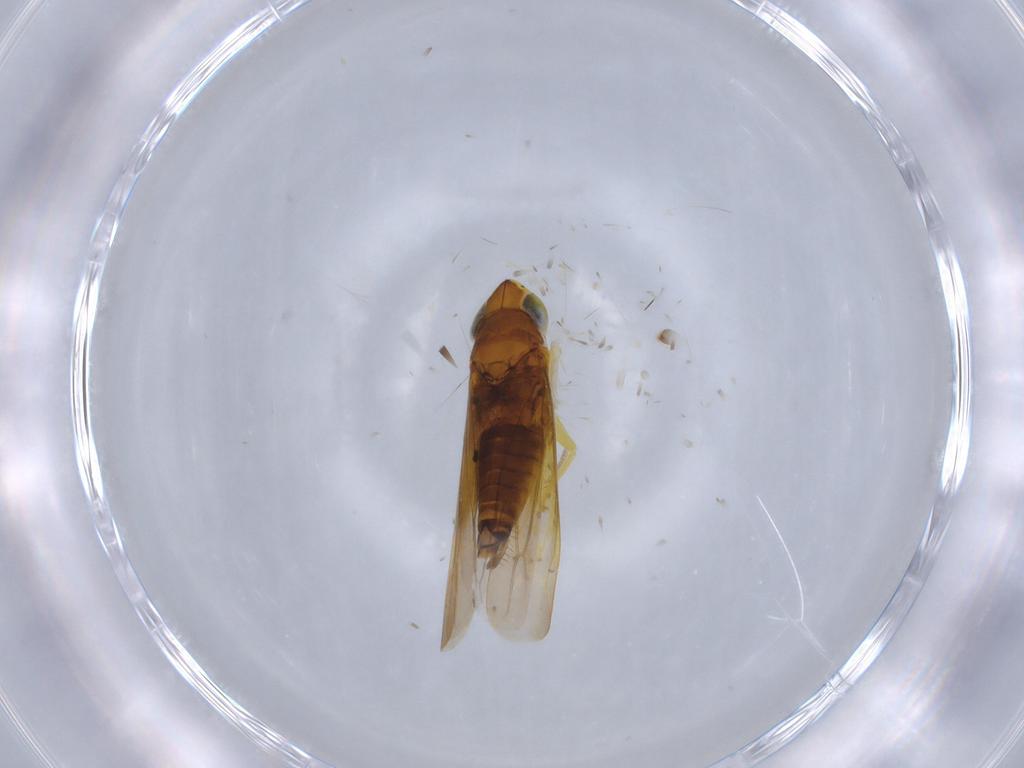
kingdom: Animalia
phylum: Arthropoda
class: Insecta
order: Hemiptera
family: Cicadellidae
